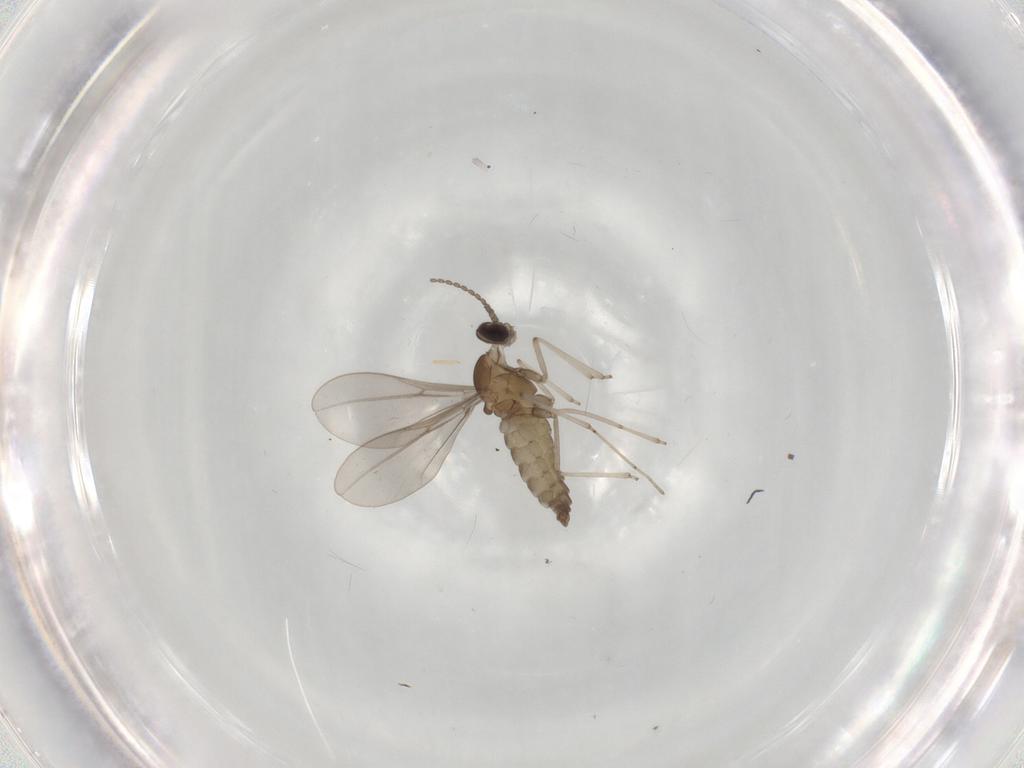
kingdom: Animalia
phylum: Arthropoda
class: Insecta
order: Diptera
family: Cecidomyiidae
